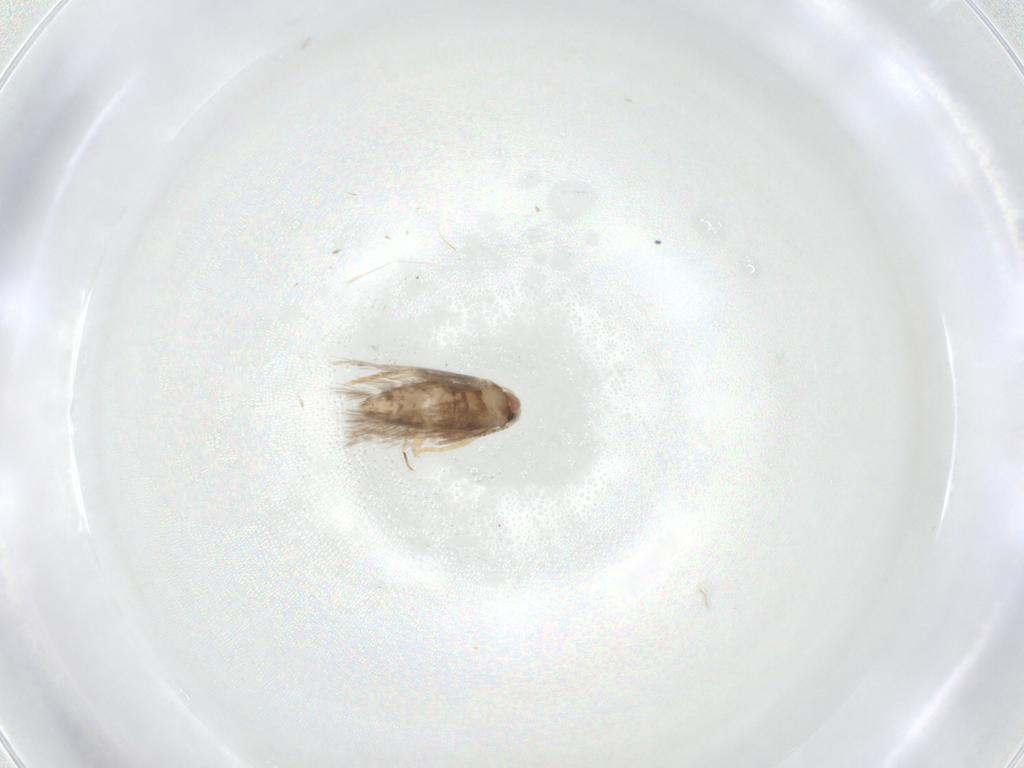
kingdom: Animalia
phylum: Arthropoda
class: Insecta
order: Lepidoptera
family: Nepticulidae
